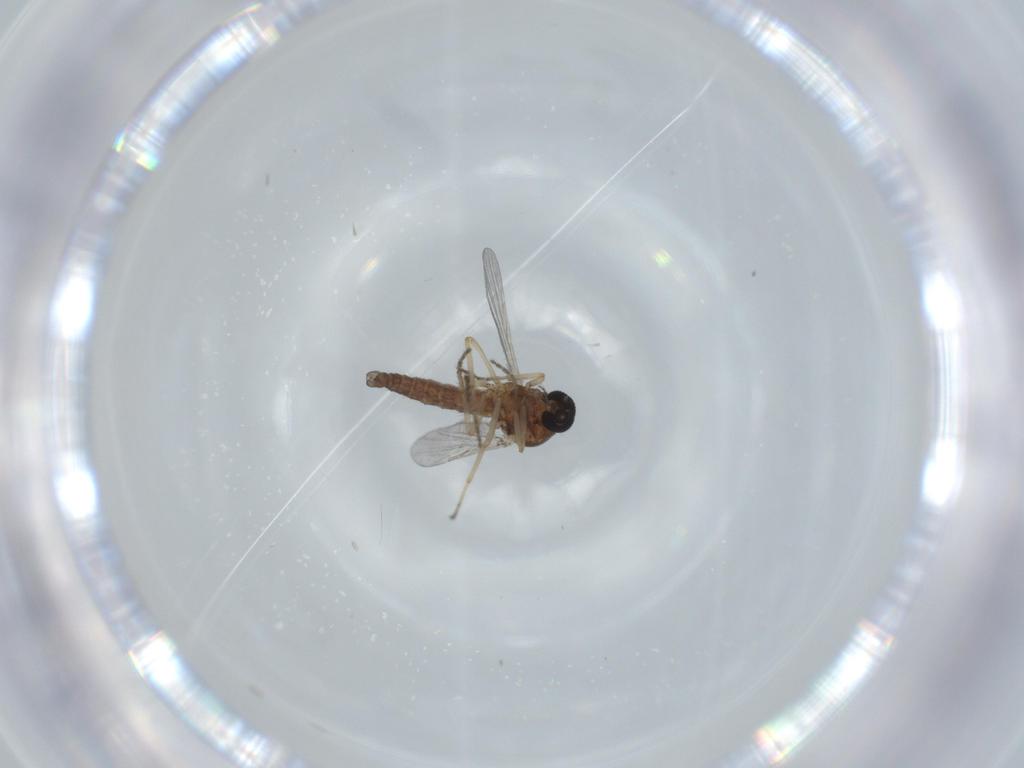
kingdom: Animalia
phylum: Arthropoda
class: Insecta
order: Diptera
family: Ceratopogonidae
